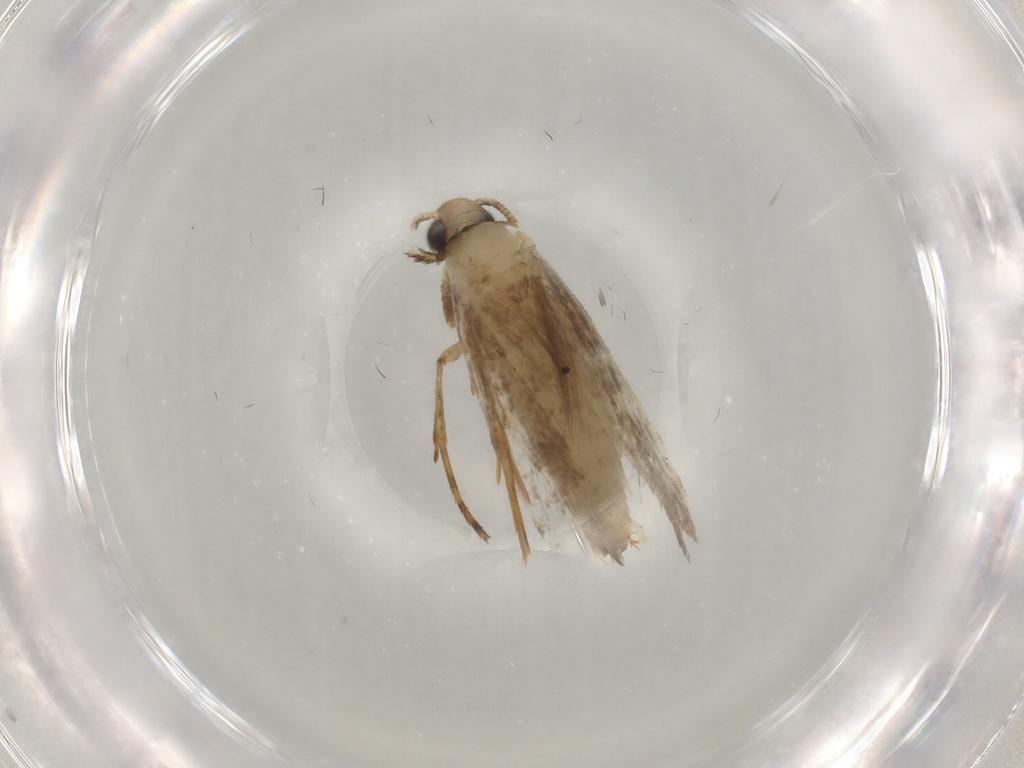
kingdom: Animalia
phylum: Arthropoda
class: Insecta
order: Lepidoptera
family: Tineidae
